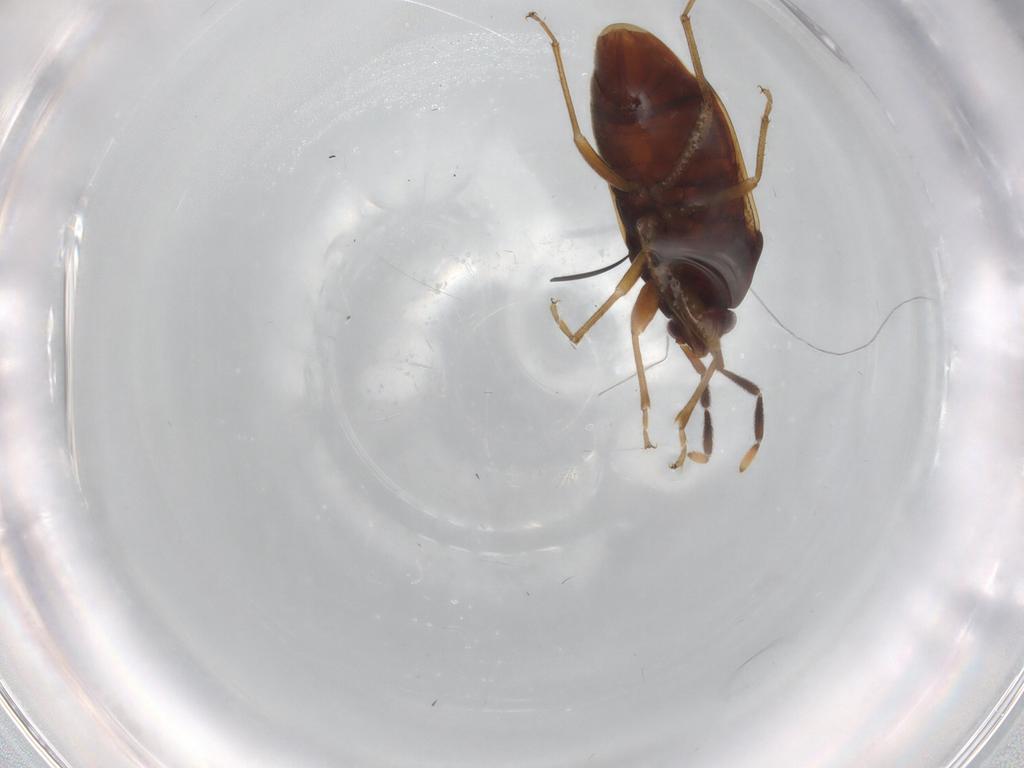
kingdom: Animalia
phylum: Arthropoda
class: Insecta
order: Hemiptera
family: Rhyparochromidae
